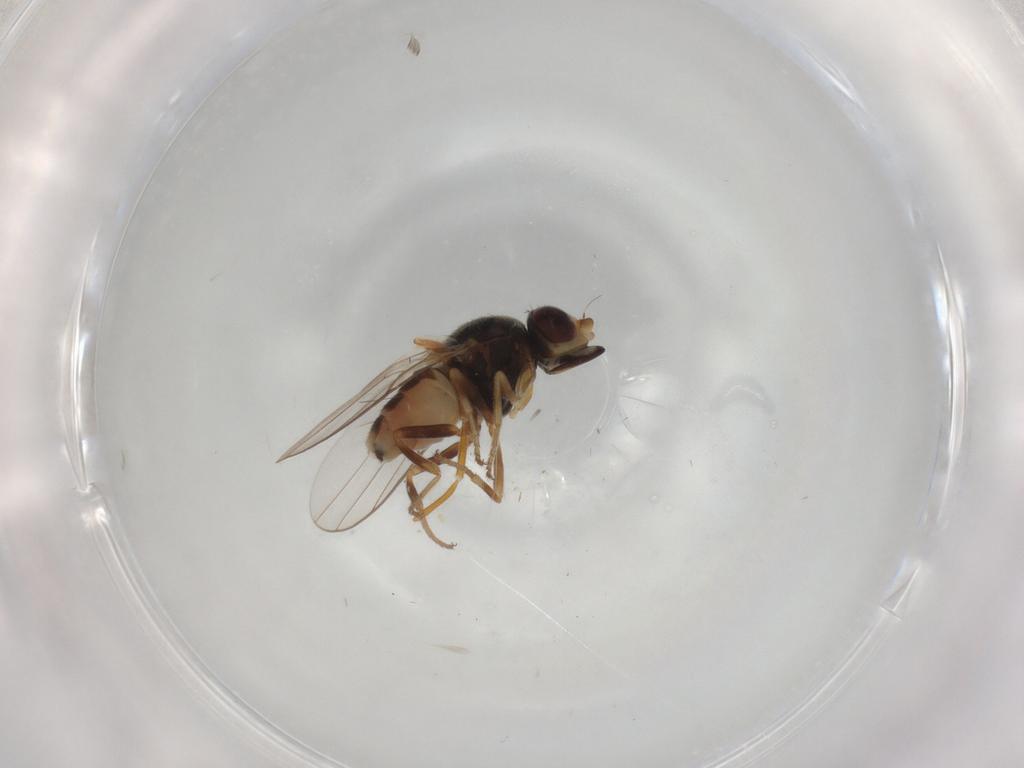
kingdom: Animalia
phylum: Arthropoda
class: Insecta
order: Diptera
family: Chloropidae
